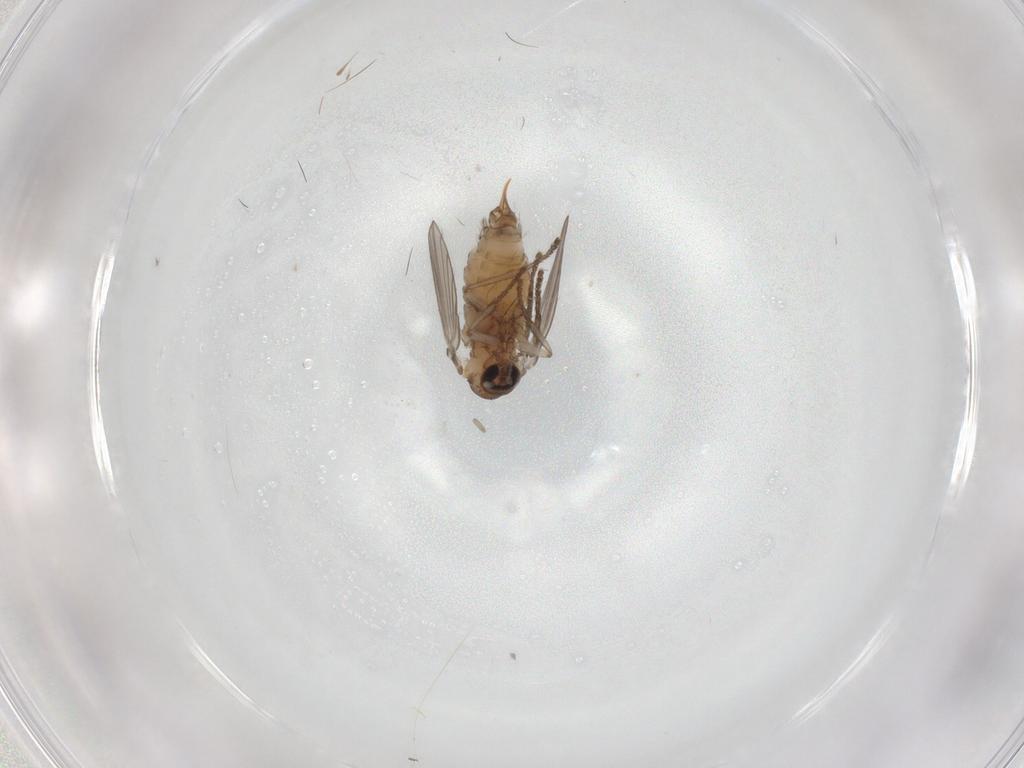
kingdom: Animalia
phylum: Arthropoda
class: Insecta
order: Diptera
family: Psychodidae
